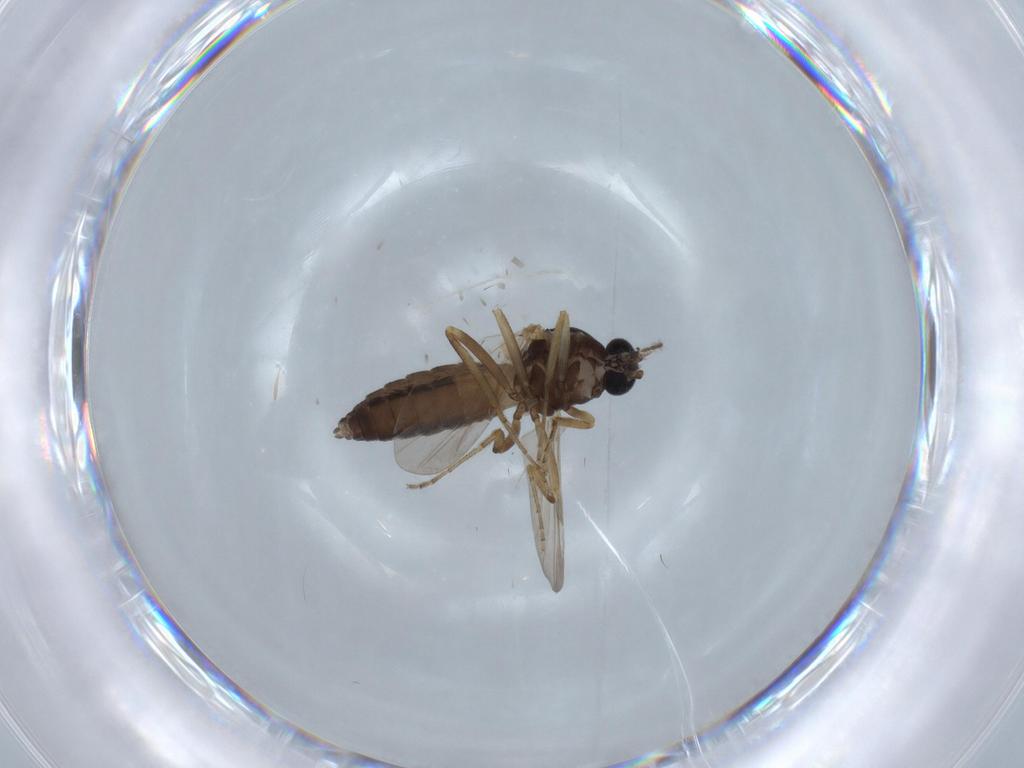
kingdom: Animalia
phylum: Arthropoda
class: Insecta
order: Diptera
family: Ceratopogonidae
